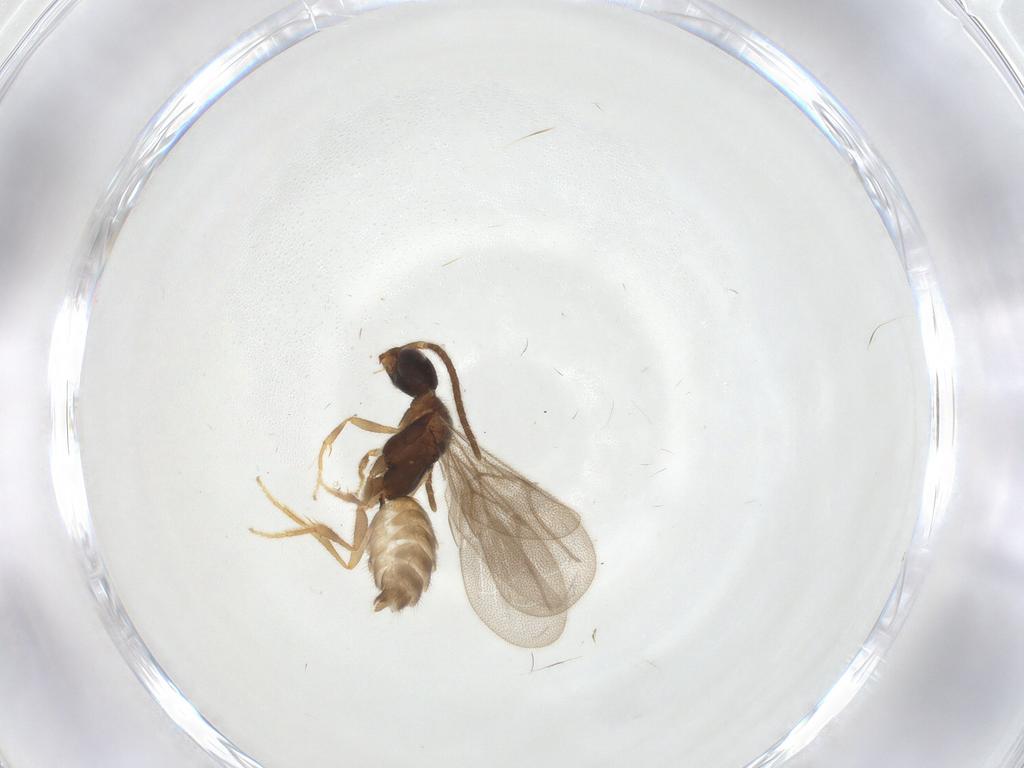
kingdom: Animalia
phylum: Arthropoda
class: Insecta
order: Hymenoptera
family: Bethylidae
